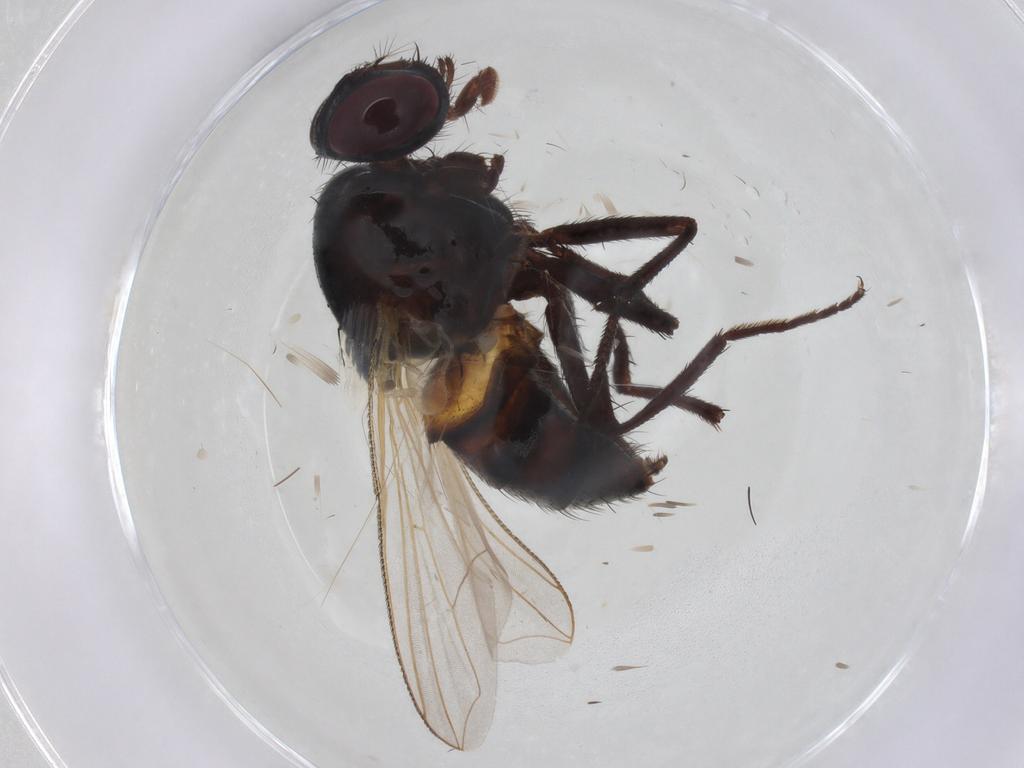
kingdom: Animalia
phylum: Arthropoda
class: Insecta
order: Diptera
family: Muscidae
